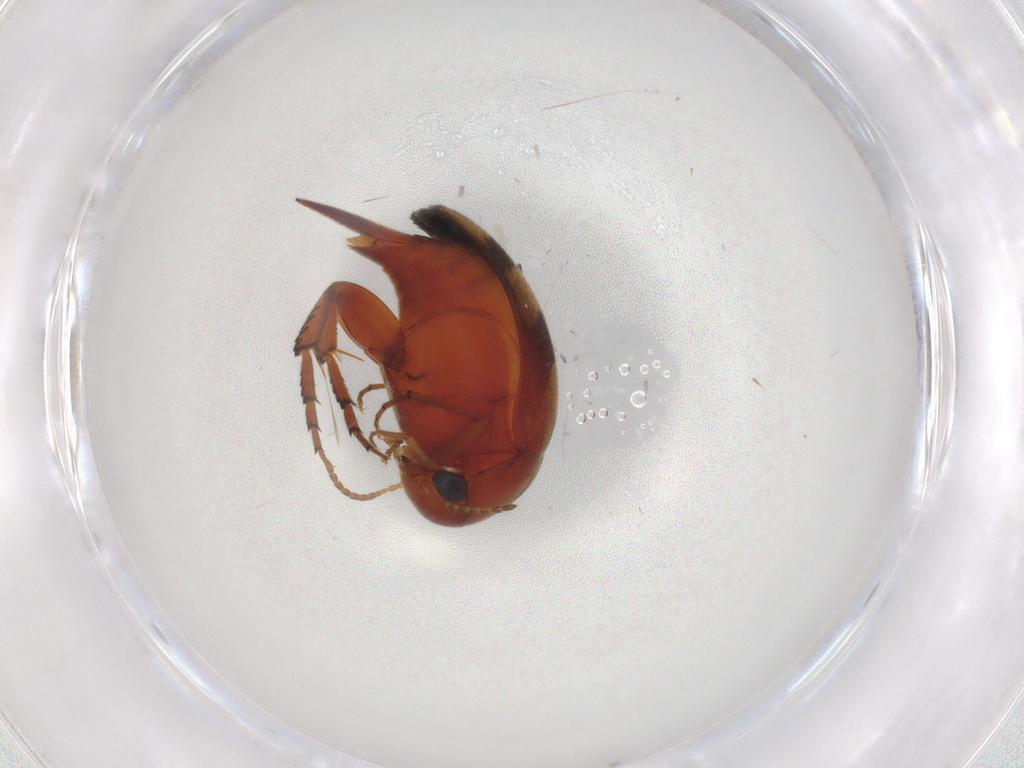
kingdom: Animalia
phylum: Arthropoda
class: Insecta
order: Coleoptera
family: Mordellidae
